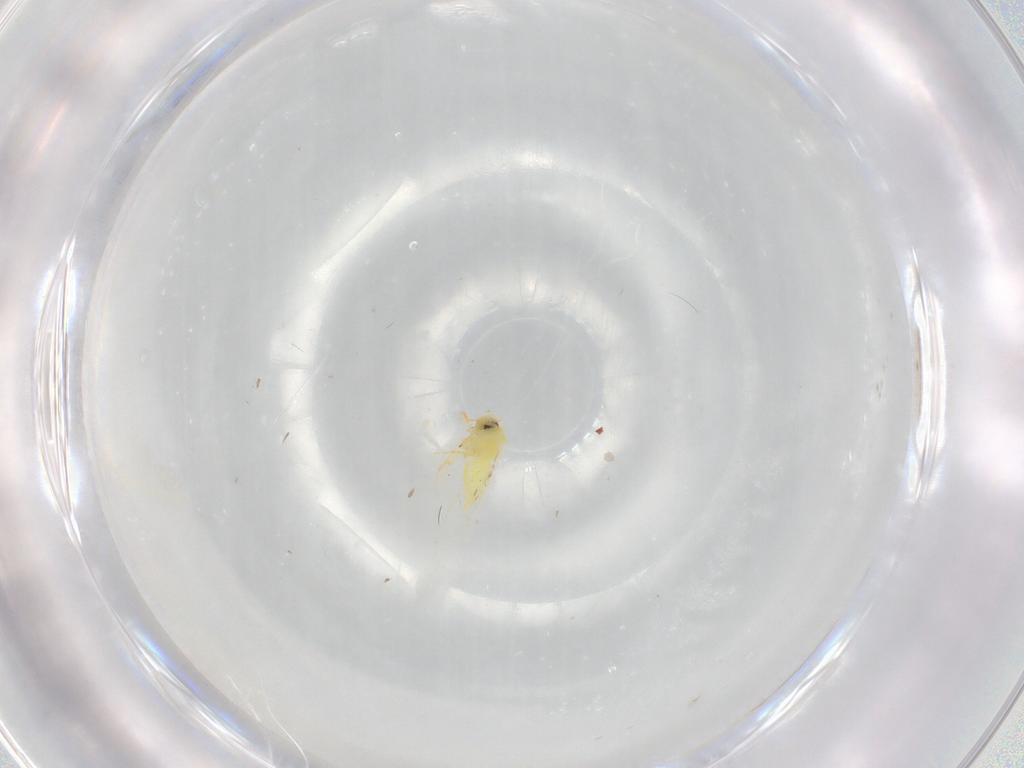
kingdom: Animalia
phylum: Arthropoda
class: Insecta
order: Hemiptera
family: Aleyrodidae
